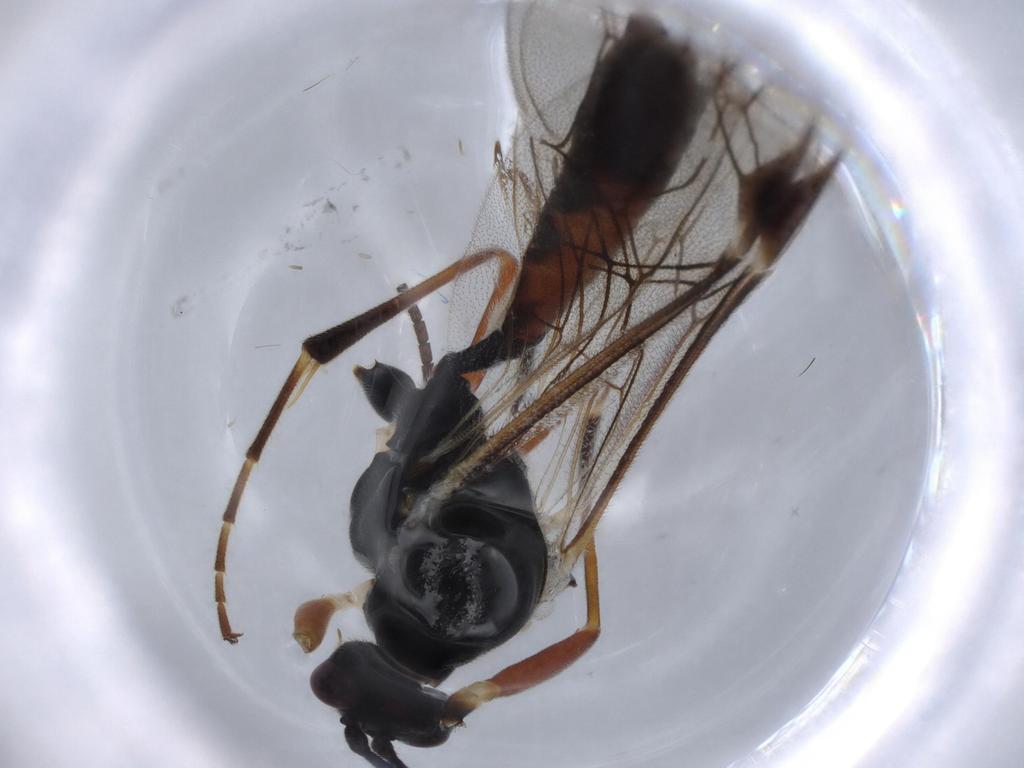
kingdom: Animalia
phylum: Arthropoda
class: Insecta
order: Hymenoptera
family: Ichneumonidae
